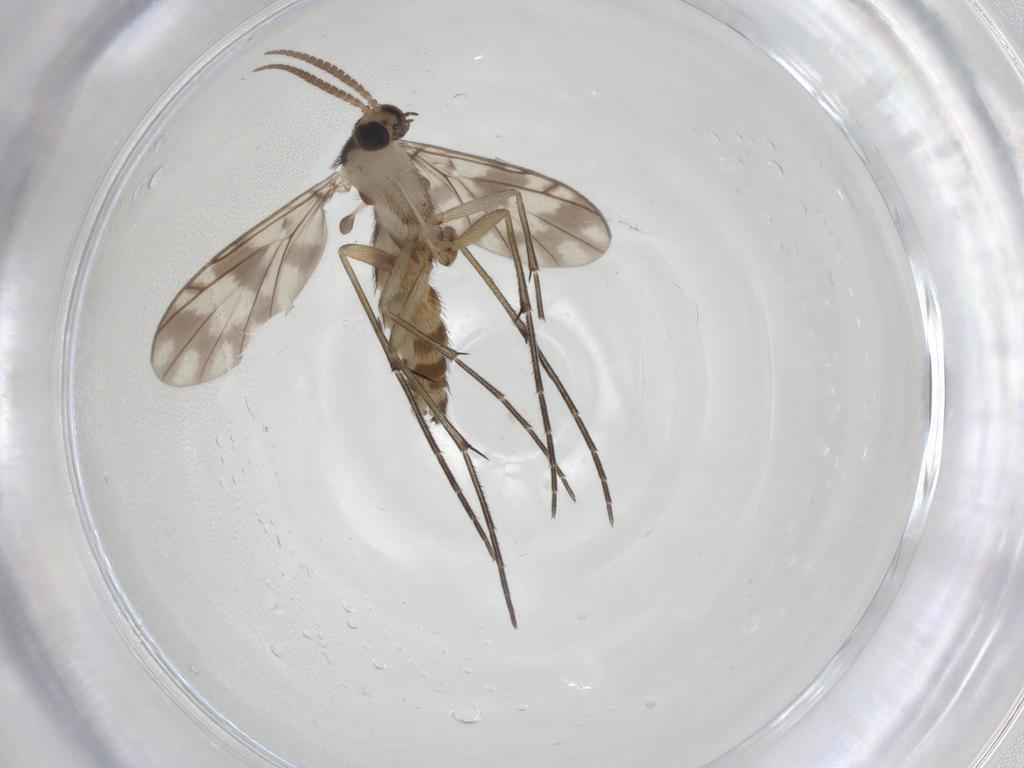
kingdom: Animalia
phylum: Arthropoda
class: Insecta
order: Diptera
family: Keroplatidae
